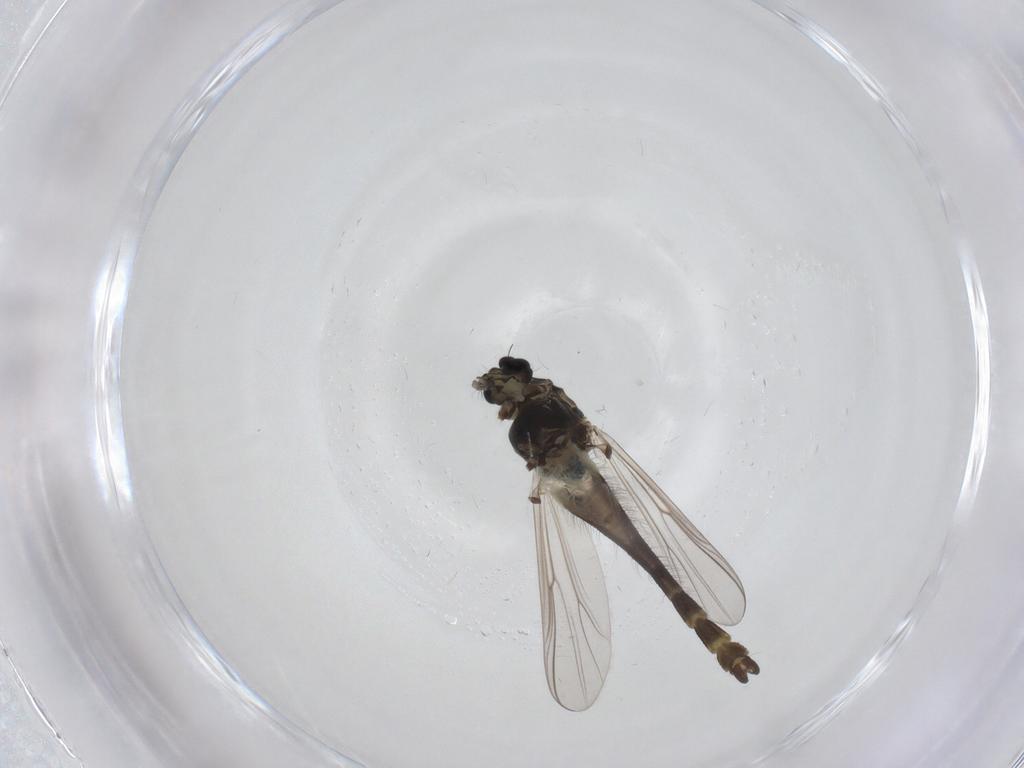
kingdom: Animalia
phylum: Arthropoda
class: Insecta
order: Diptera
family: Chironomidae
